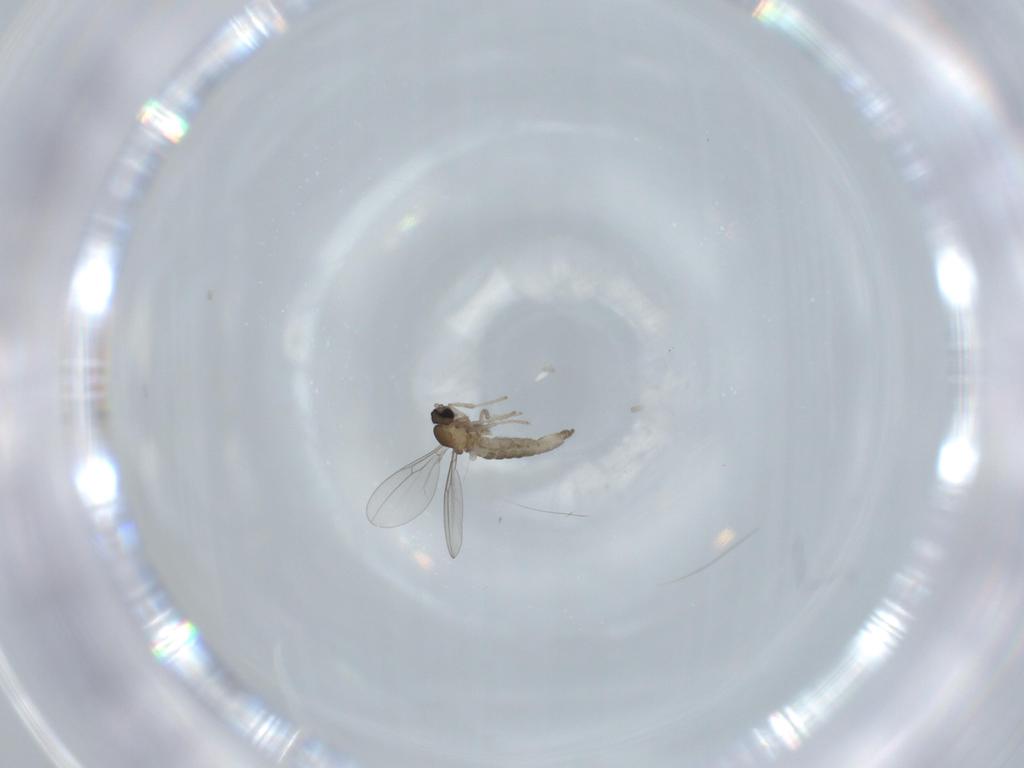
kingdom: Animalia
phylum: Arthropoda
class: Insecta
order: Diptera
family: Cecidomyiidae
